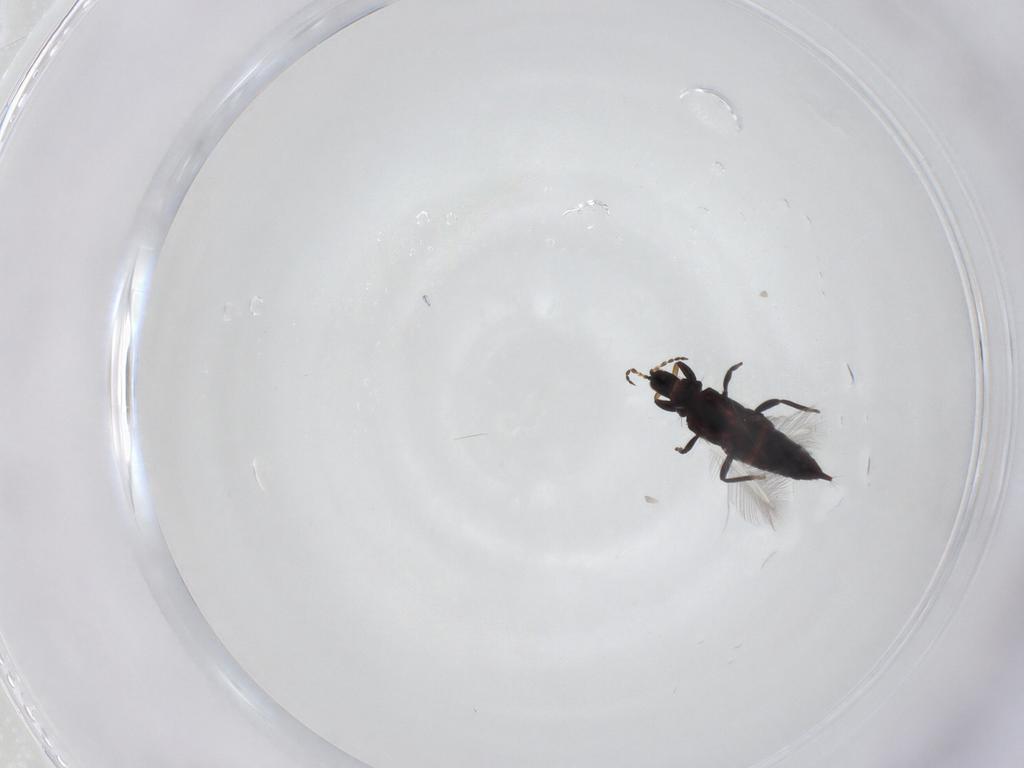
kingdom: Animalia
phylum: Arthropoda
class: Insecta
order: Thysanoptera
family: Phlaeothripidae
